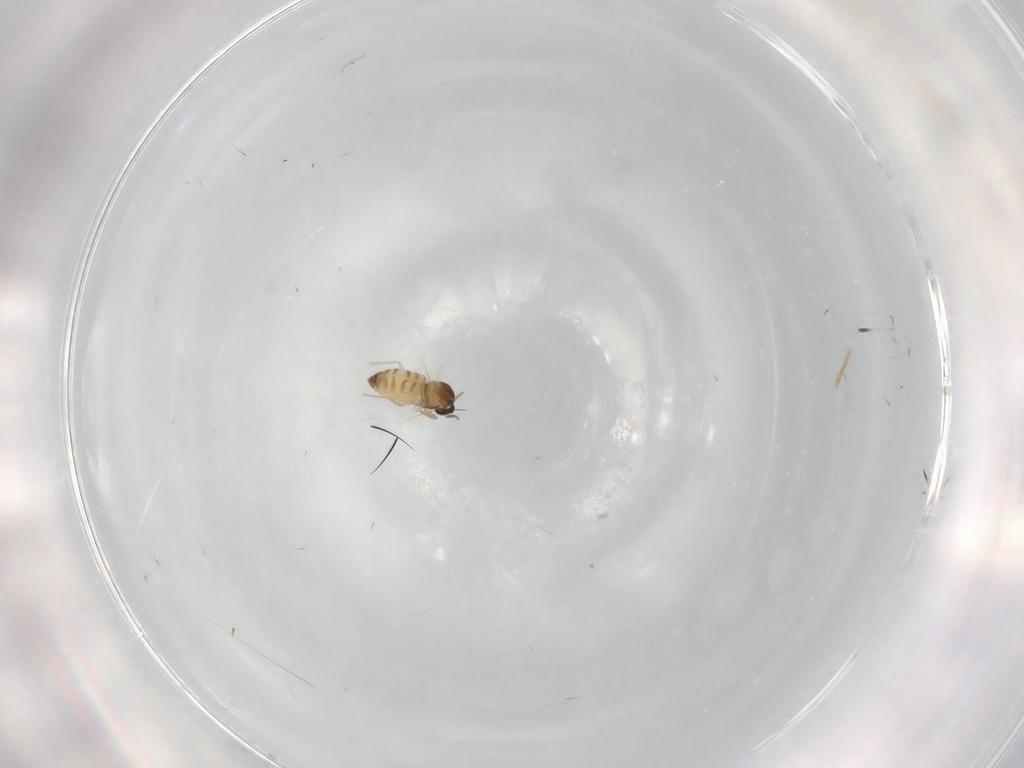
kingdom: Animalia
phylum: Arthropoda
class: Insecta
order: Diptera
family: Cecidomyiidae
